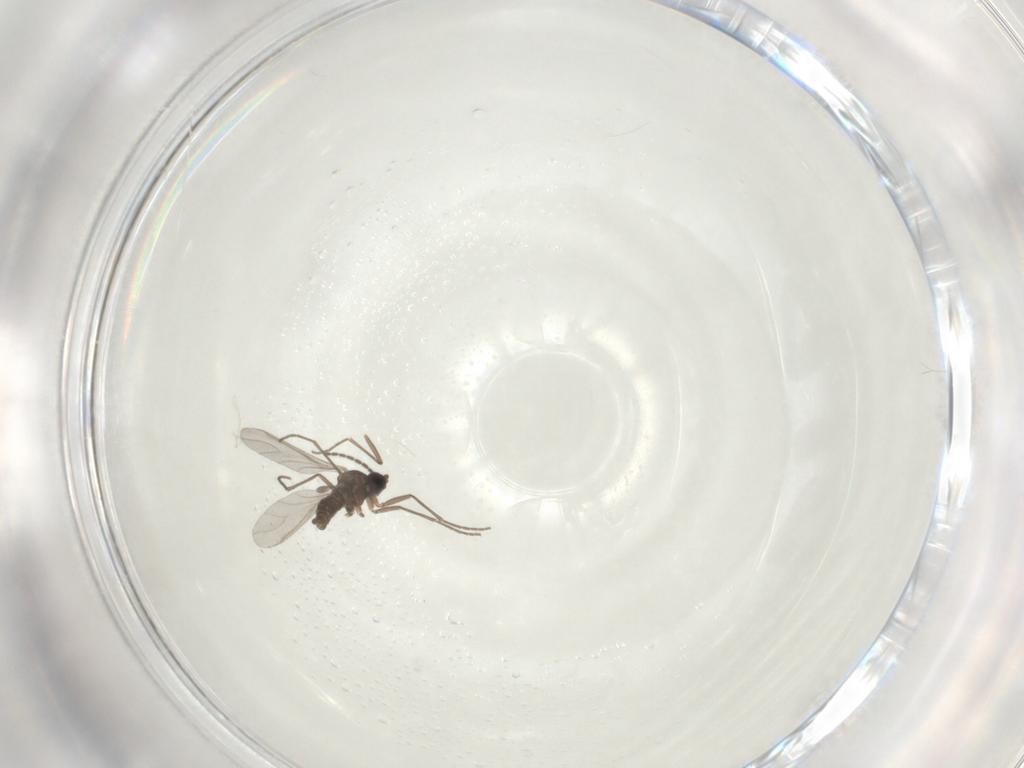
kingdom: Animalia
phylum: Arthropoda
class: Insecta
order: Diptera
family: Sciaridae
